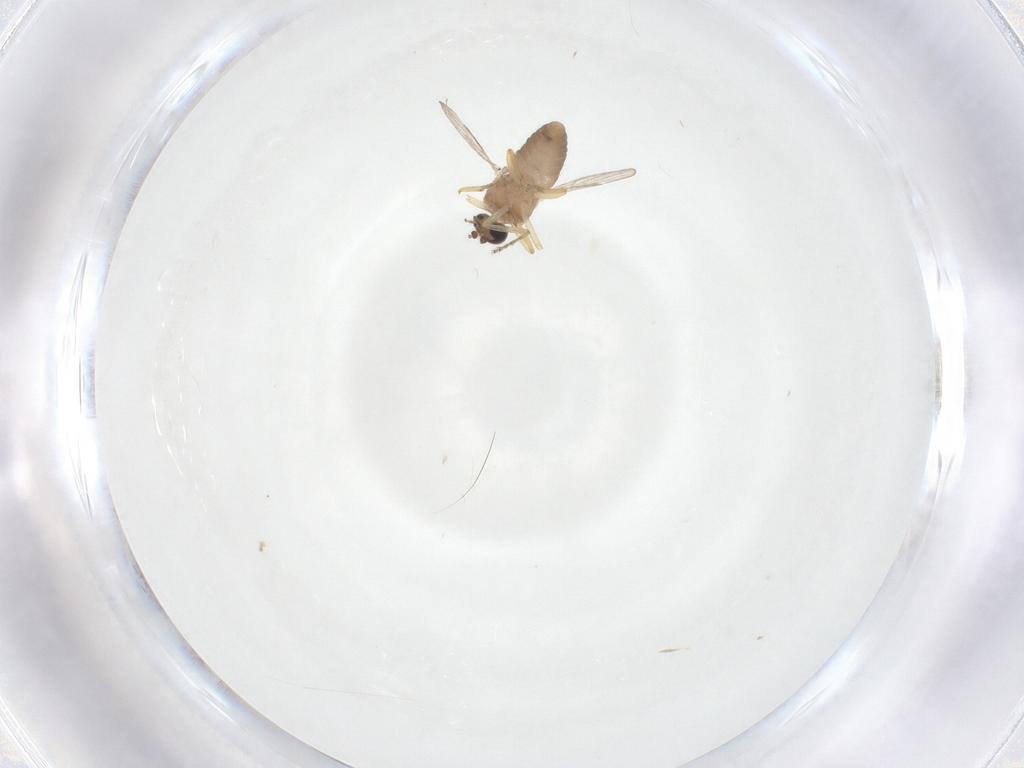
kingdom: Animalia
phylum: Arthropoda
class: Insecta
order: Diptera
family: Ceratopogonidae
